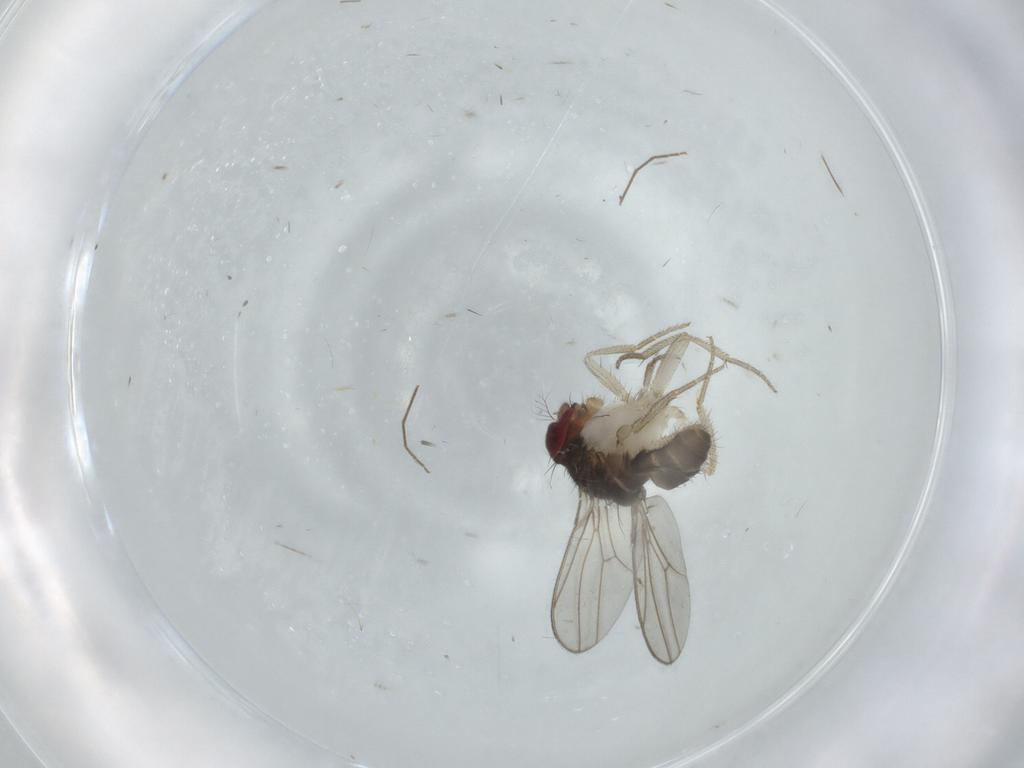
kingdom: Animalia
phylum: Arthropoda
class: Insecta
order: Diptera
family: Drosophilidae
